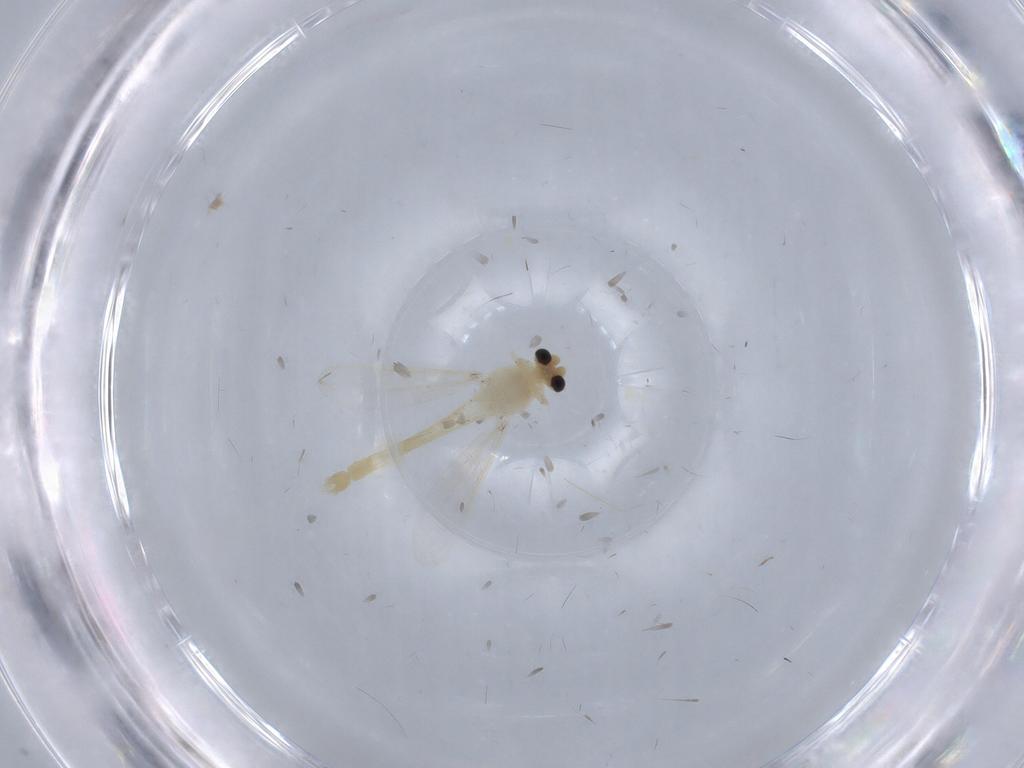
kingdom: Animalia
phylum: Arthropoda
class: Insecta
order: Diptera
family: Chironomidae
